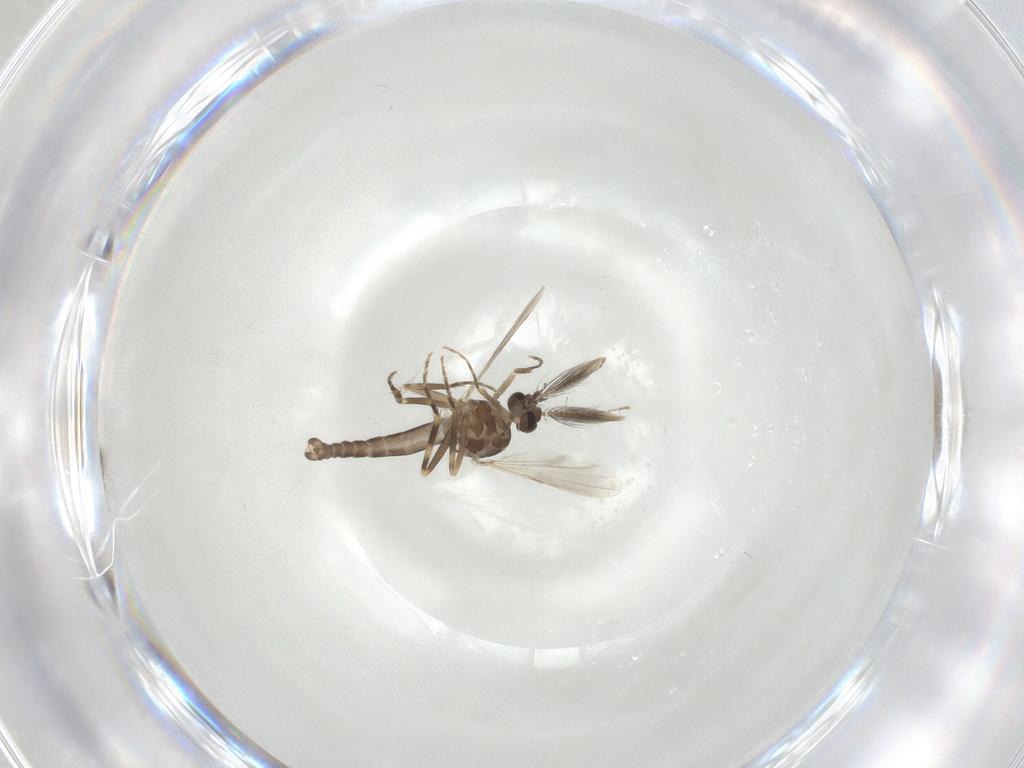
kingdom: Animalia
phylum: Arthropoda
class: Insecta
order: Diptera
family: Ceratopogonidae
